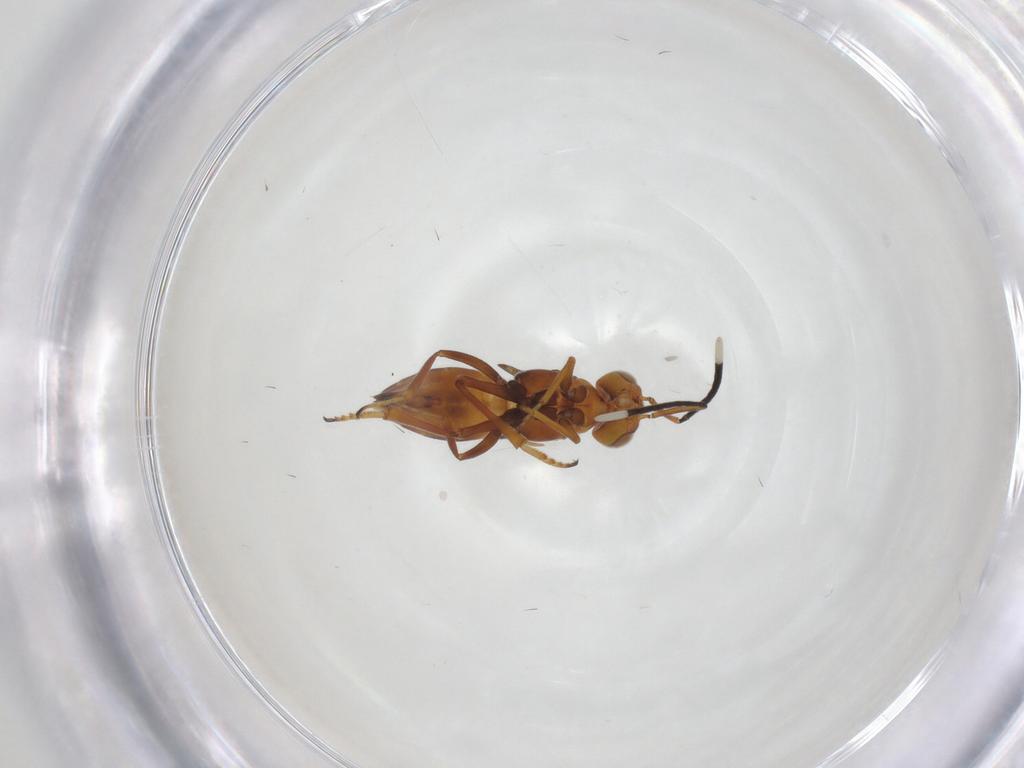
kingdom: Animalia
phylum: Arthropoda
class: Insecta
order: Hymenoptera
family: Encyrtidae
